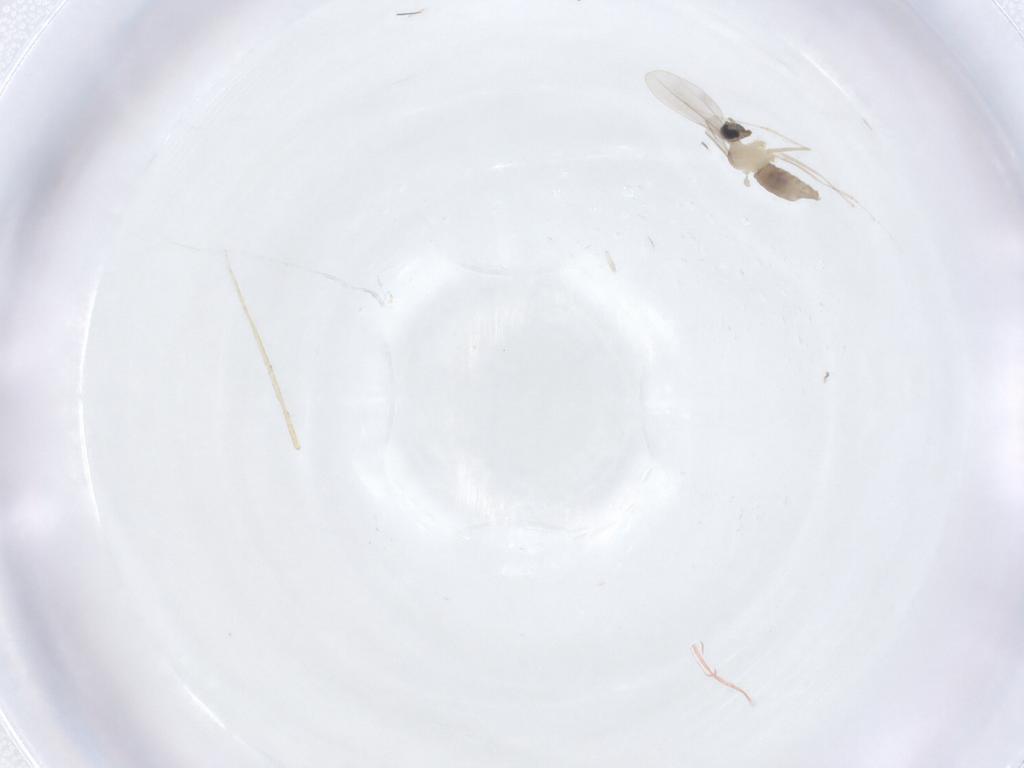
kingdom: Animalia
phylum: Arthropoda
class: Insecta
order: Diptera
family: Cecidomyiidae
